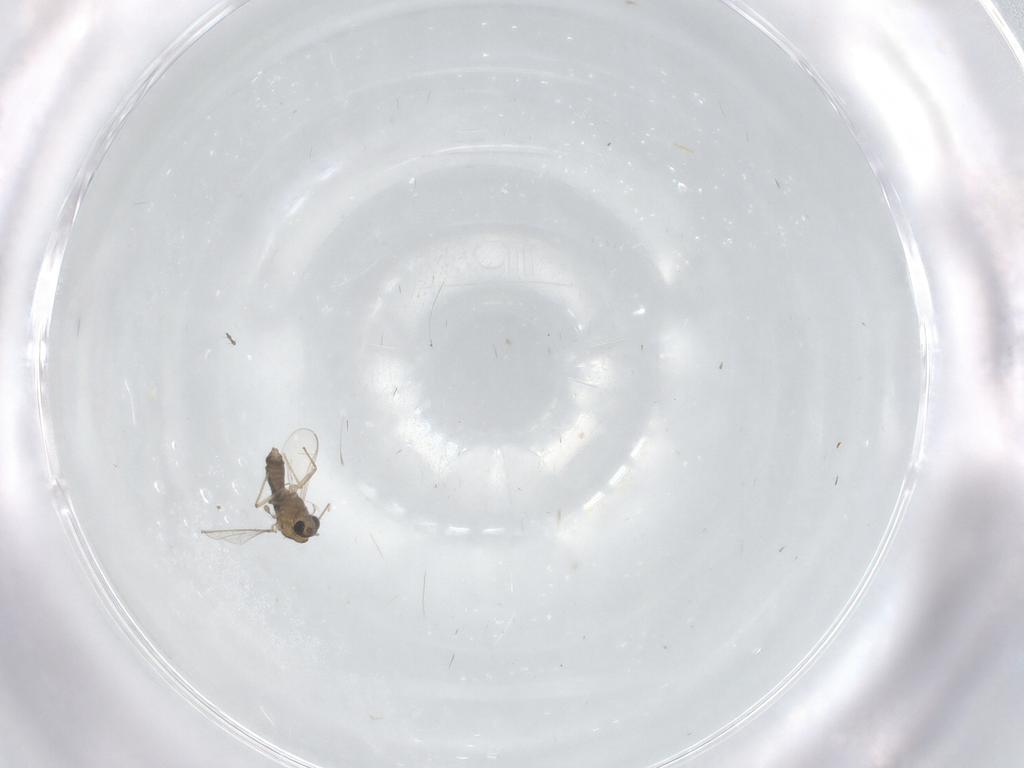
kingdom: Animalia
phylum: Arthropoda
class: Insecta
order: Diptera
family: Chironomidae
